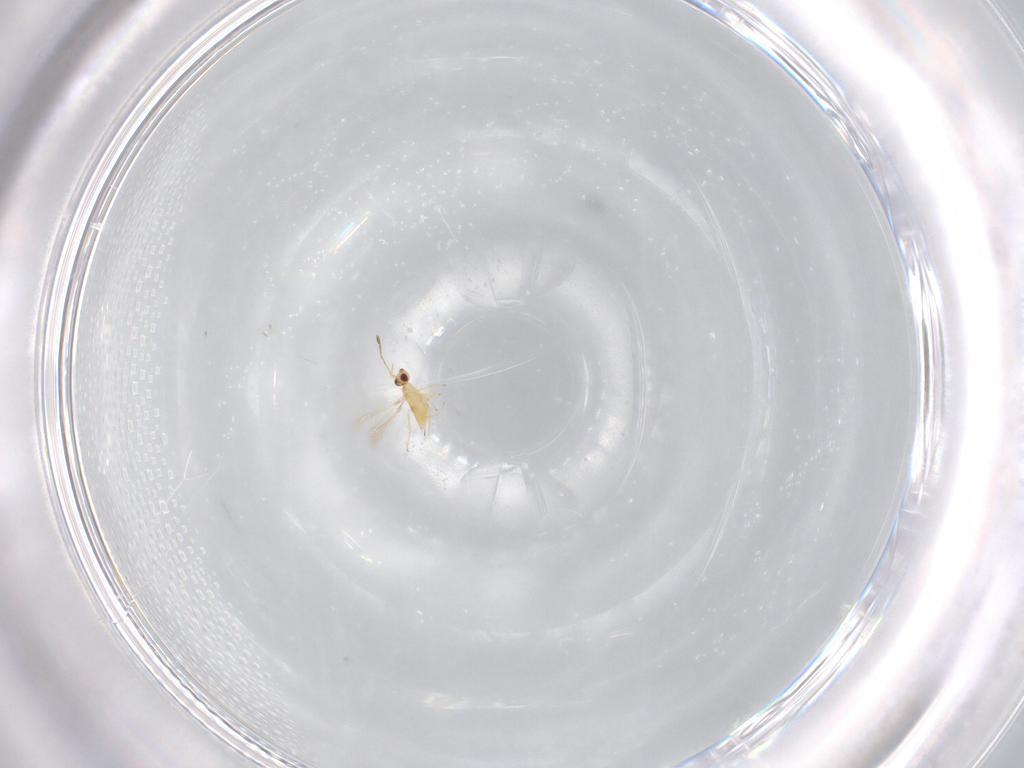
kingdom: Animalia
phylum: Arthropoda
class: Insecta
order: Hymenoptera
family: Mymaridae
